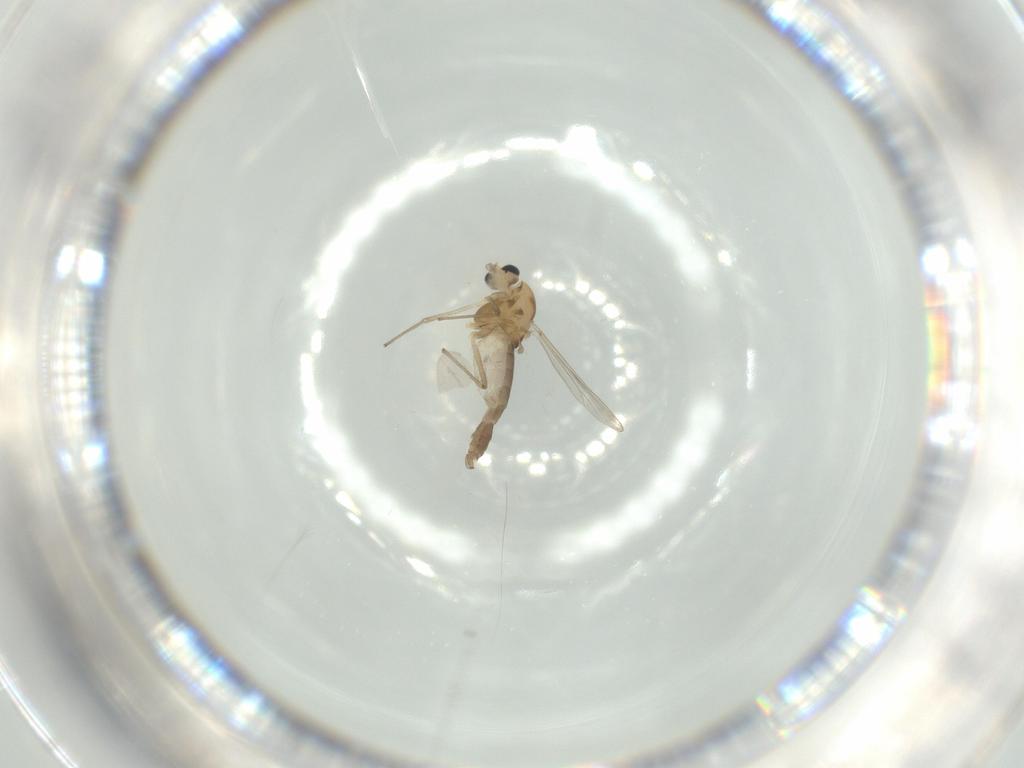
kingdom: Animalia
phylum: Arthropoda
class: Insecta
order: Diptera
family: Chironomidae
